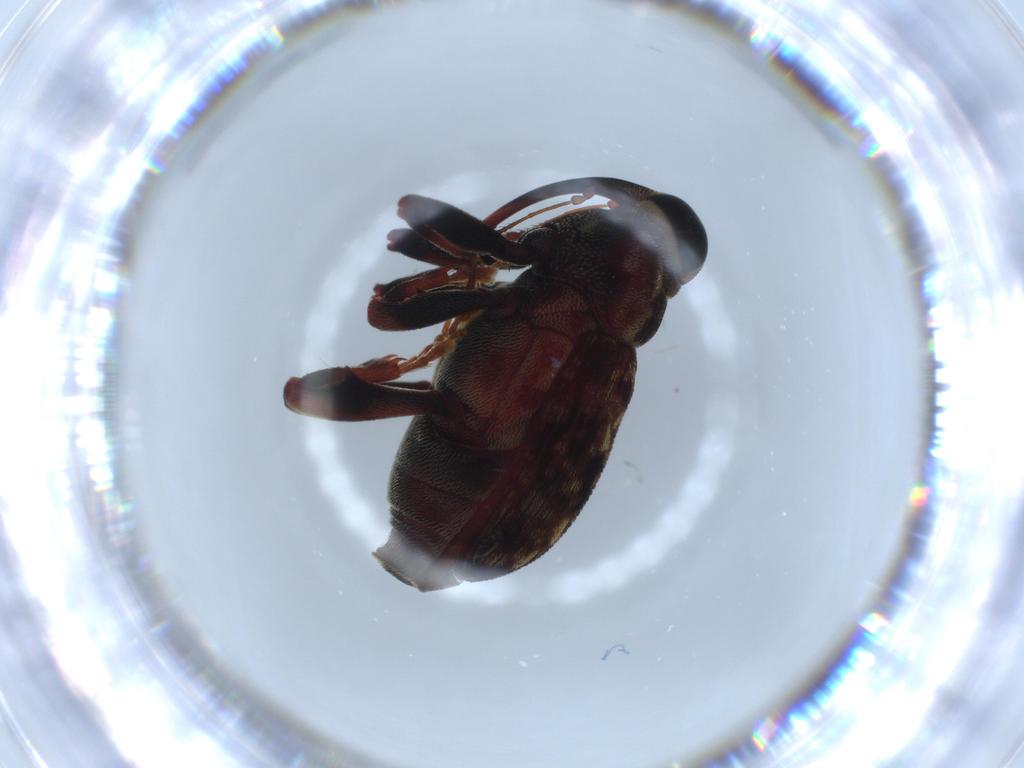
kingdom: Animalia
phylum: Arthropoda
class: Insecta
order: Coleoptera
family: Curculionidae
